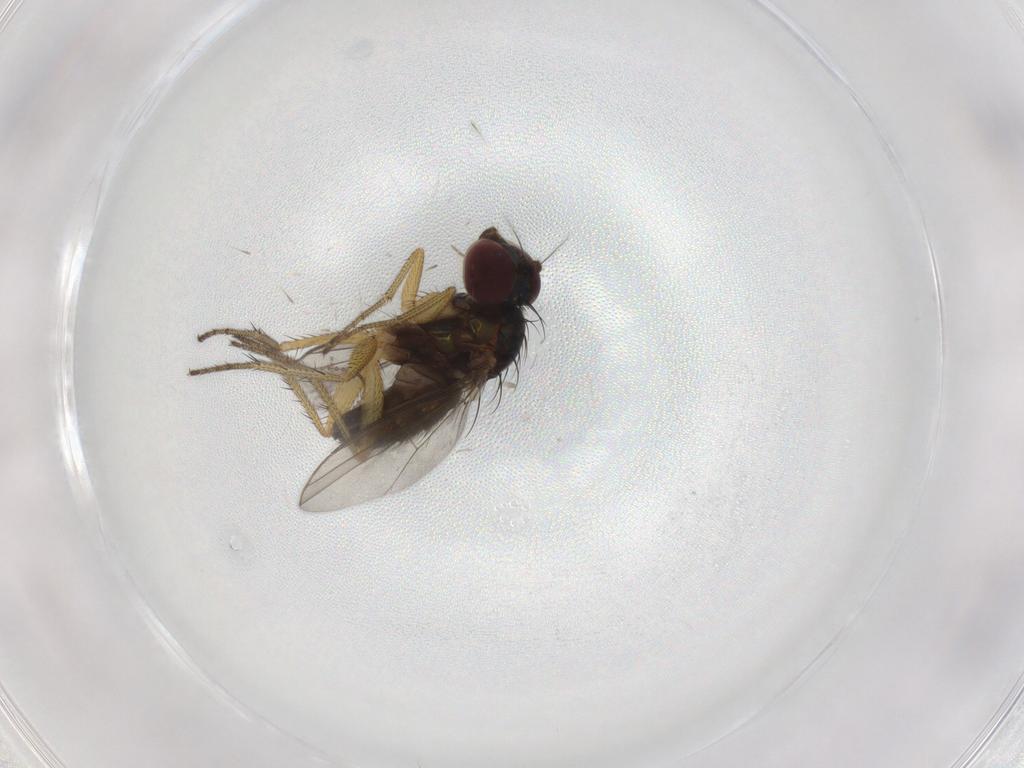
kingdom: Animalia
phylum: Arthropoda
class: Insecta
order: Diptera
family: Sciaridae
